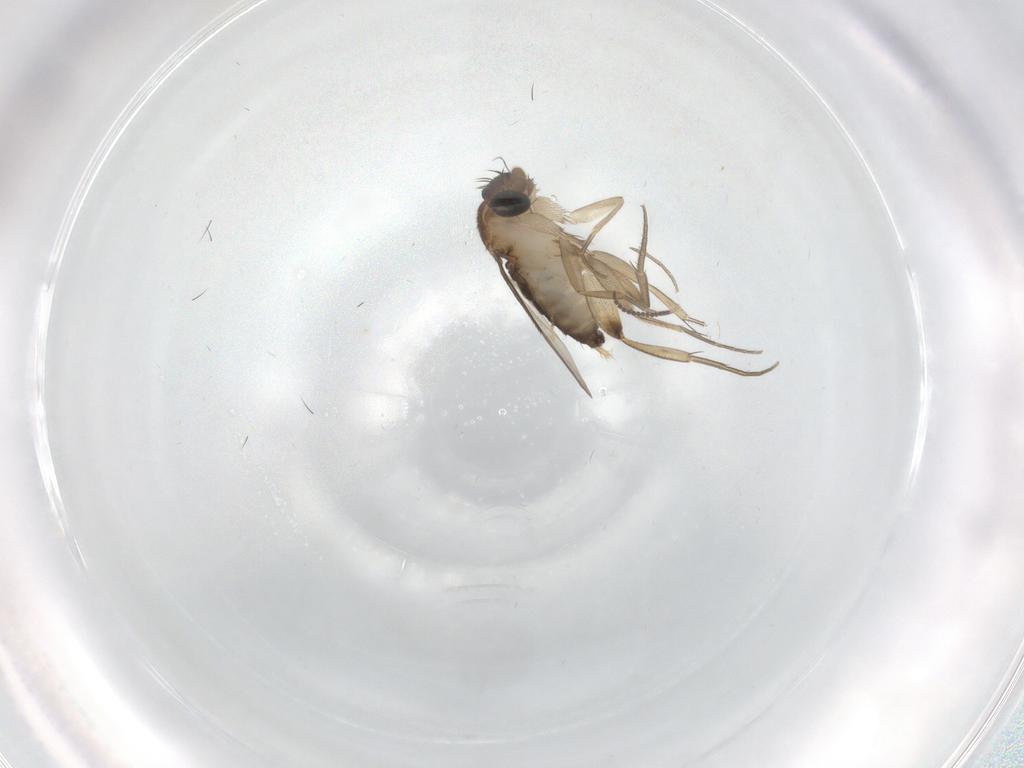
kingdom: Animalia
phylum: Arthropoda
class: Insecta
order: Diptera
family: Phoridae
